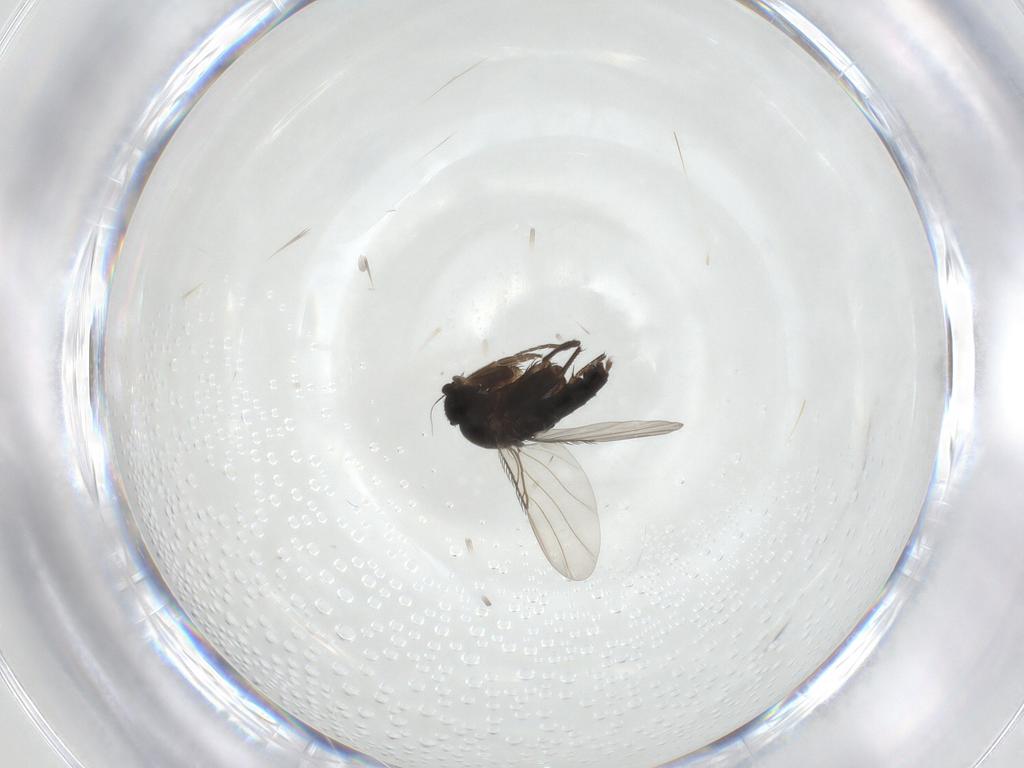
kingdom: Animalia
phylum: Arthropoda
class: Insecta
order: Diptera
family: Phoridae
